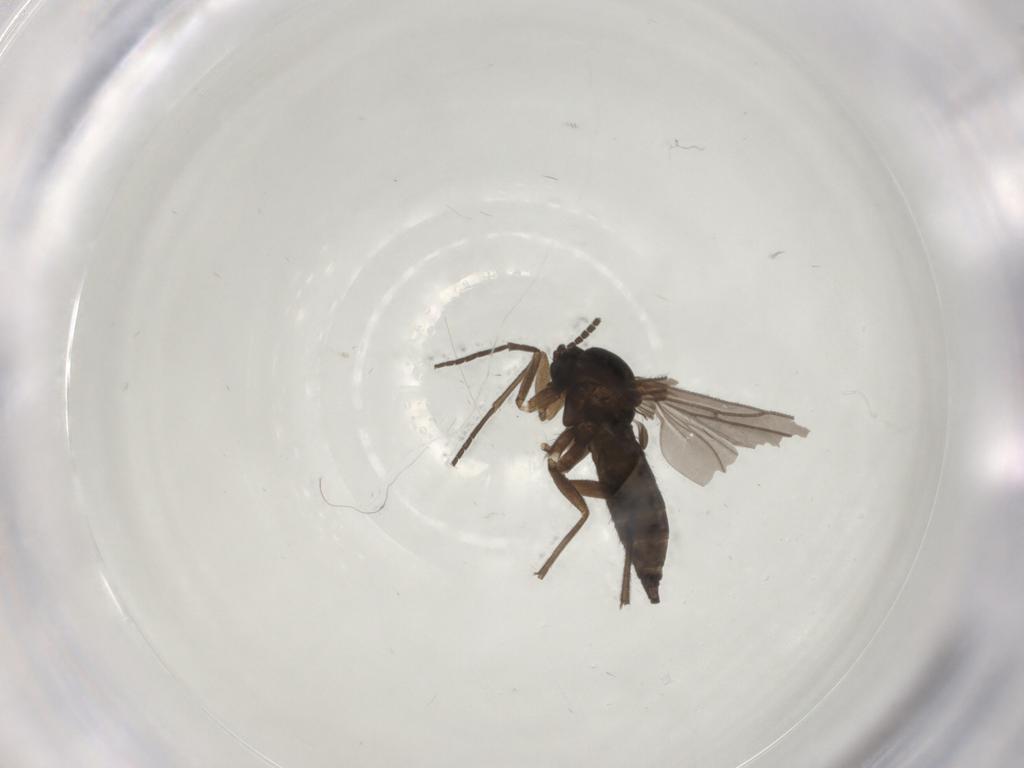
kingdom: Animalia
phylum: Arthropoda
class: Insecta
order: Diptera
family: Sciaridae
